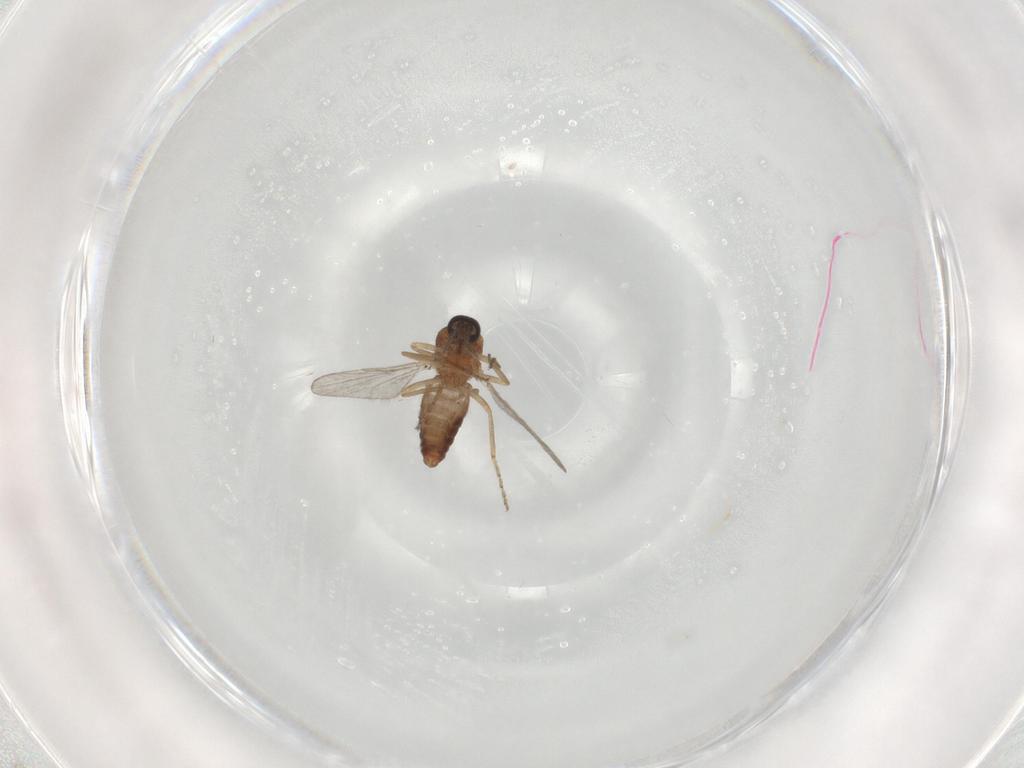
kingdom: Animalia
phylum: Arthropoda
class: Insecta
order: Diptera
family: Ceratopogonidae
